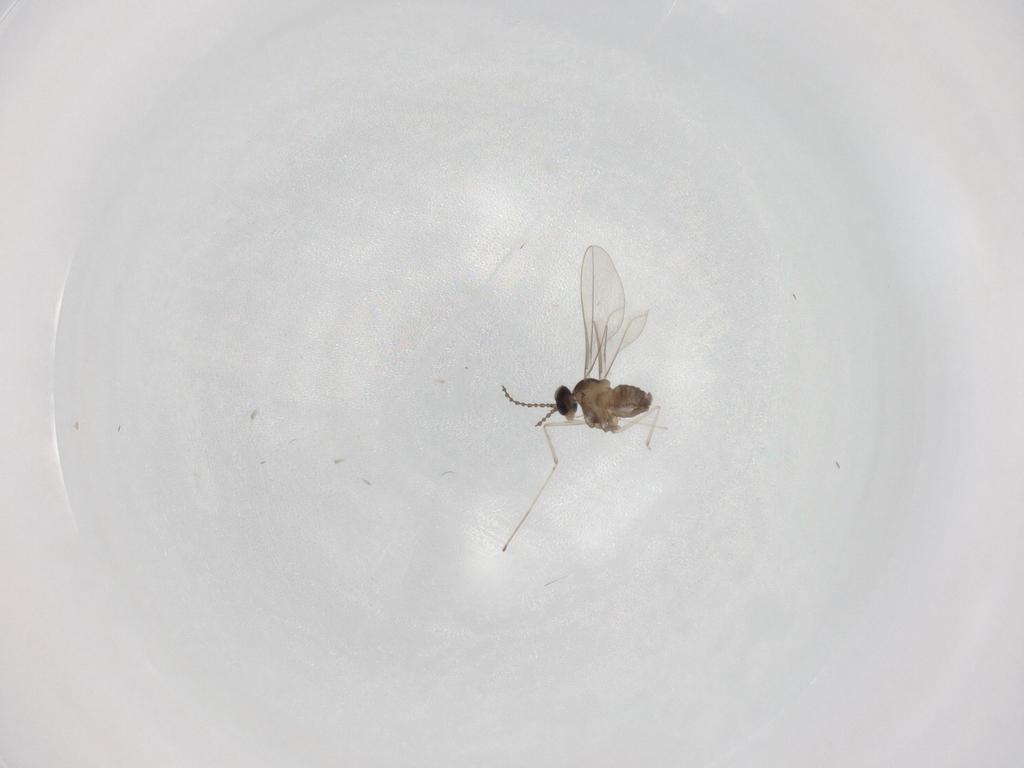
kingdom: Animalia
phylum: Arthropoda
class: Insecta
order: Diptera
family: Cecidomyiidae
